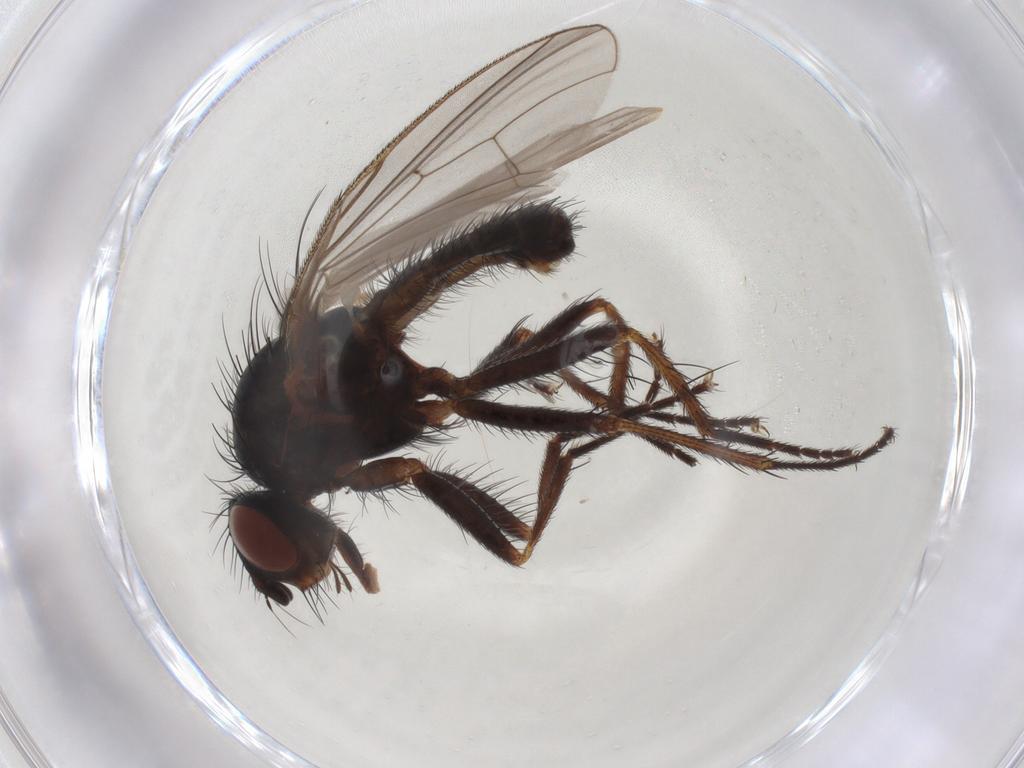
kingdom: Animalia
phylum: Arthropoda
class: Insecta
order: Diptera
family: Anthomyiidae
